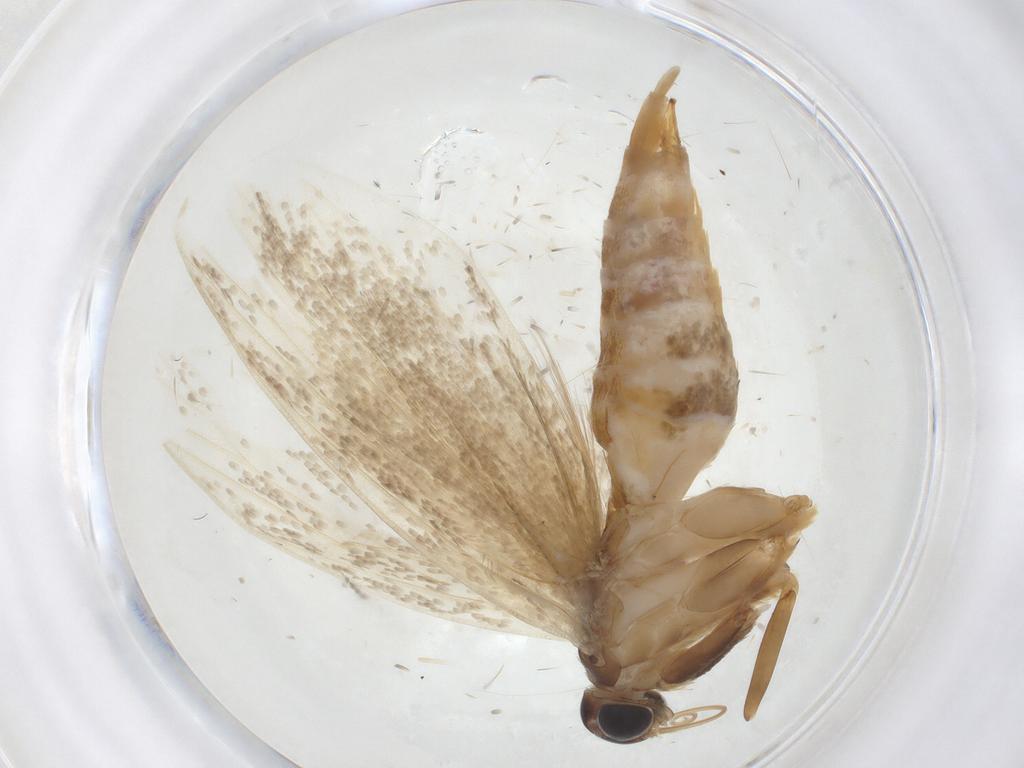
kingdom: Animalia
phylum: Arthropoda
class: Insecta
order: Lepidoptera
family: Oecophoridae
